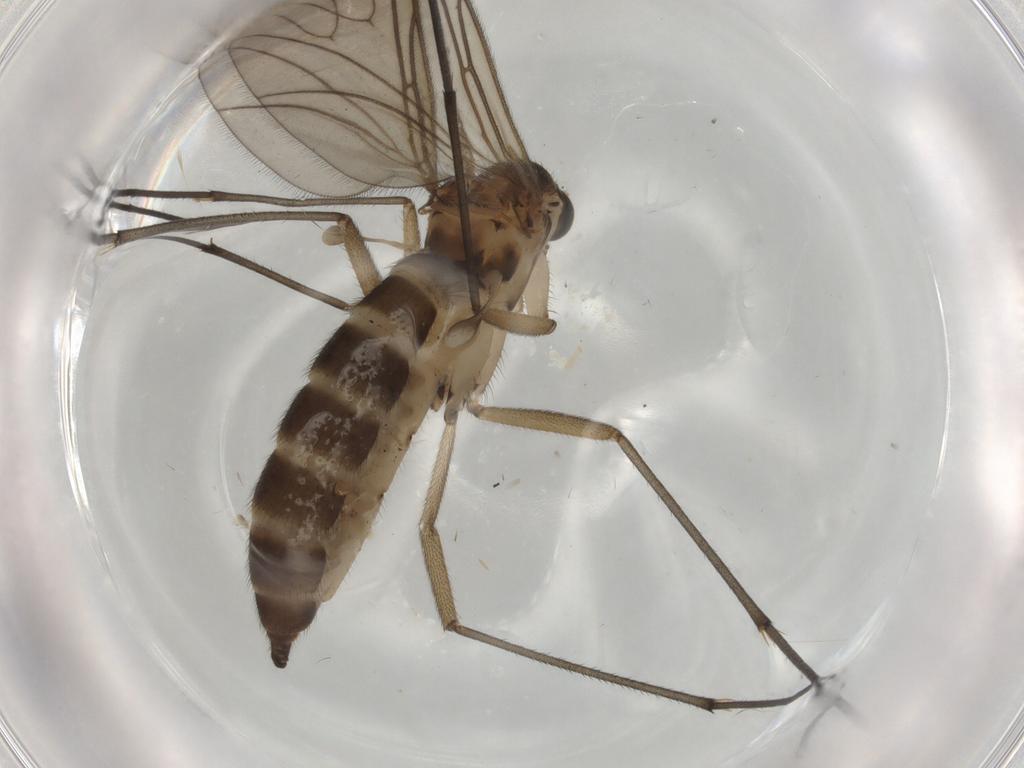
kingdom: Animalia
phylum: Arthropoda
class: Insecta
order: Diptera
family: Sciaridae
